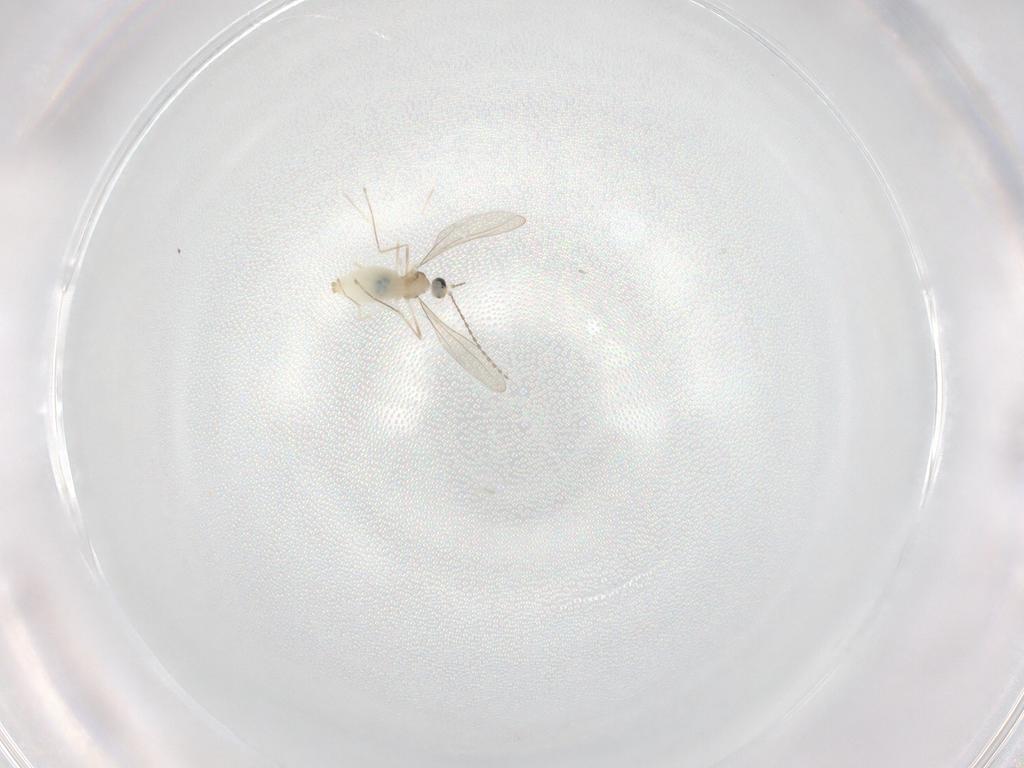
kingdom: Animalia
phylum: Arthropoda
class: Insecta
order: Diptera
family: Cecidomyiidae
